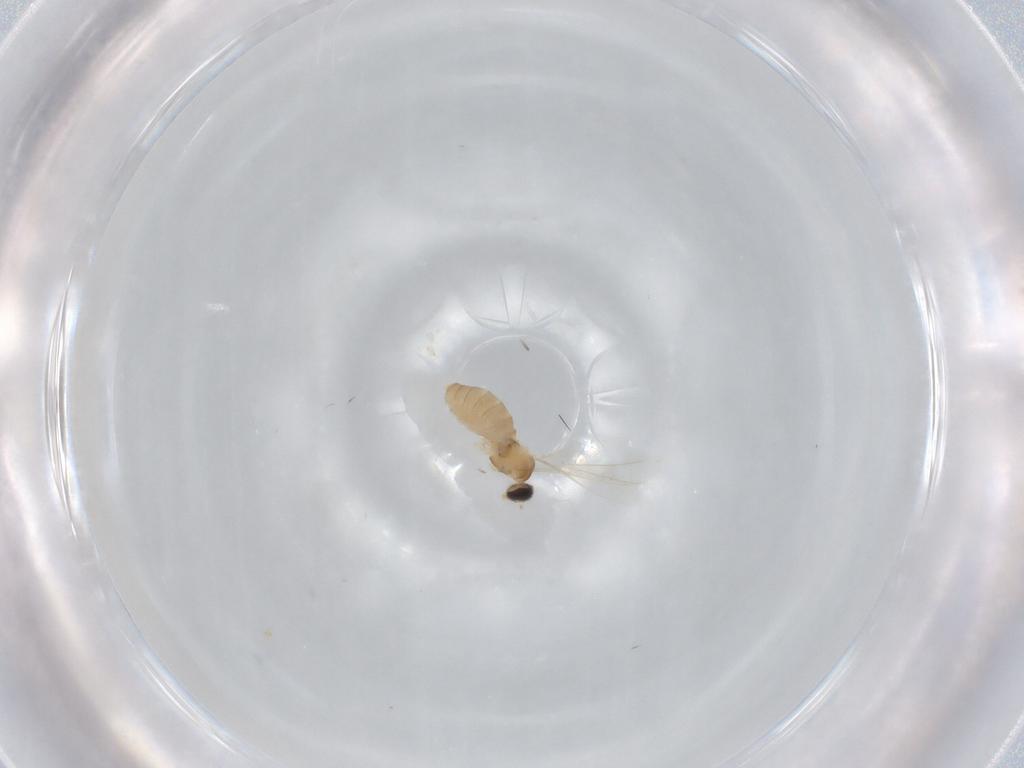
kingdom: Animalia
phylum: Arthropoda
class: Insecta
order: Diptera
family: Cecidomyiidae
